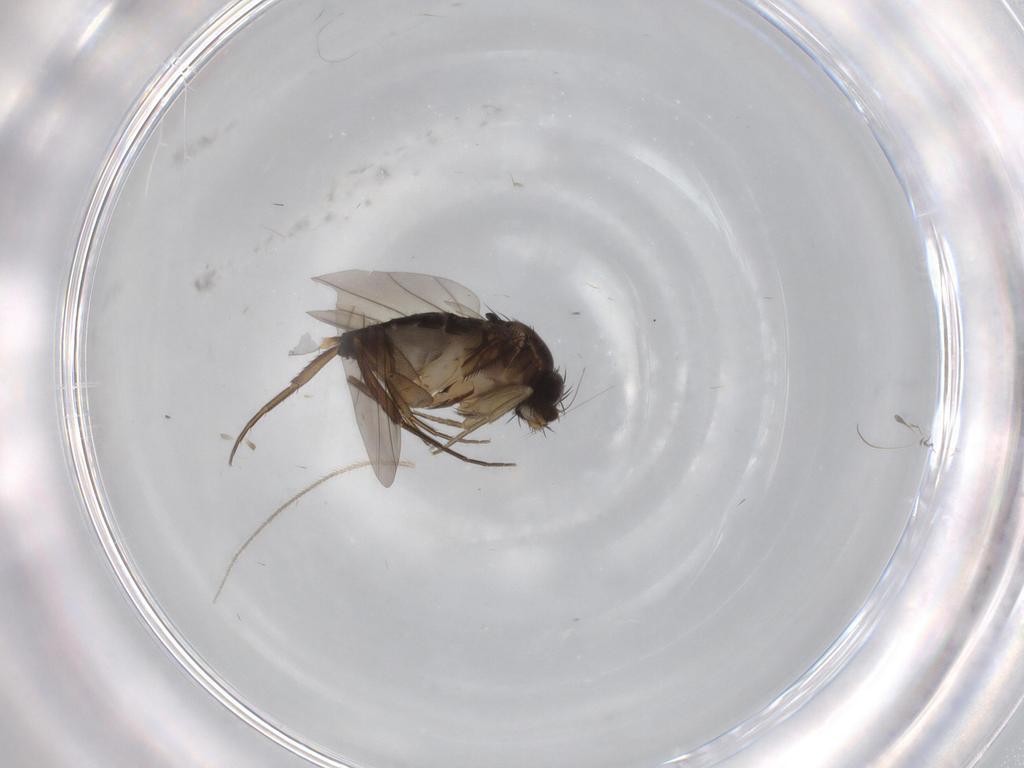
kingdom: Animalia
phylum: Arthropoda
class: Insecta
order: Diptera
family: Phoridae
